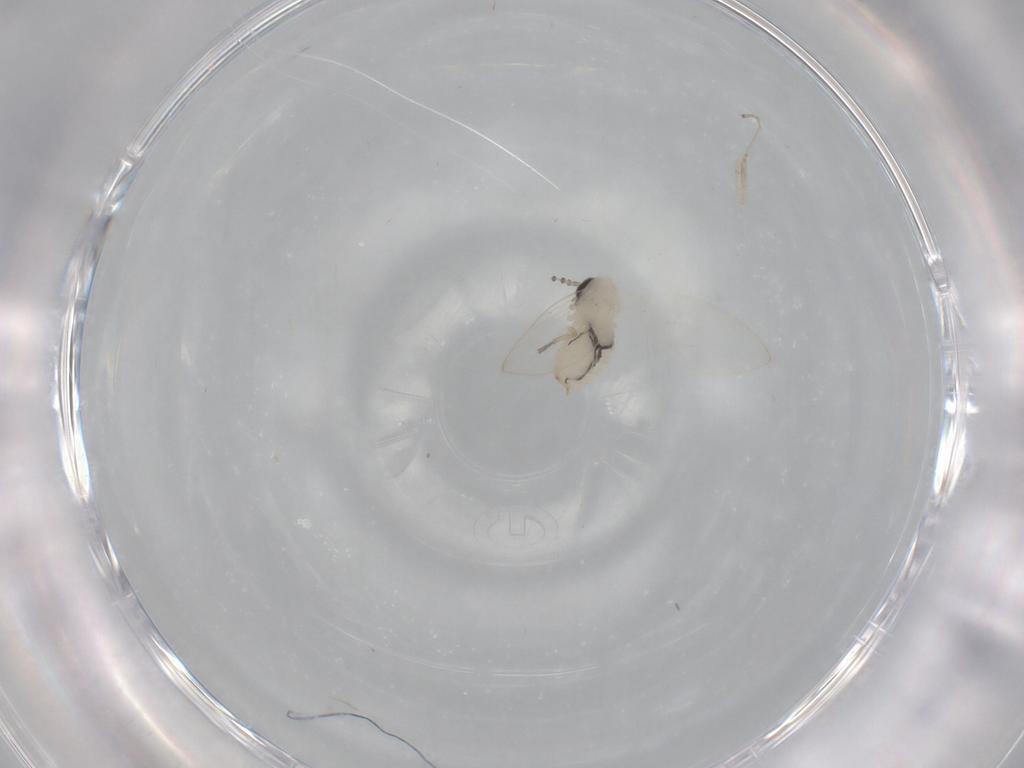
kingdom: Animalia
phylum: Arthropoda
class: Insecta
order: Diptera
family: Psychodidae
